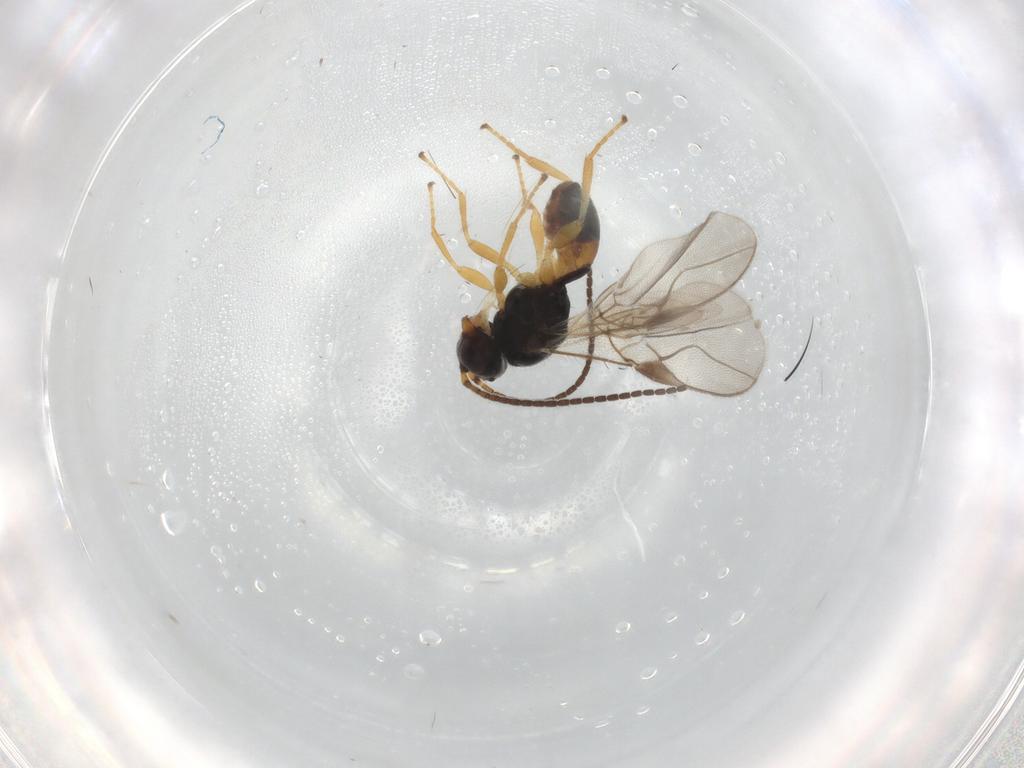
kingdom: Animalia
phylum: Arthropoda
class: Insecta
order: Hymenoptera
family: Braconidae
